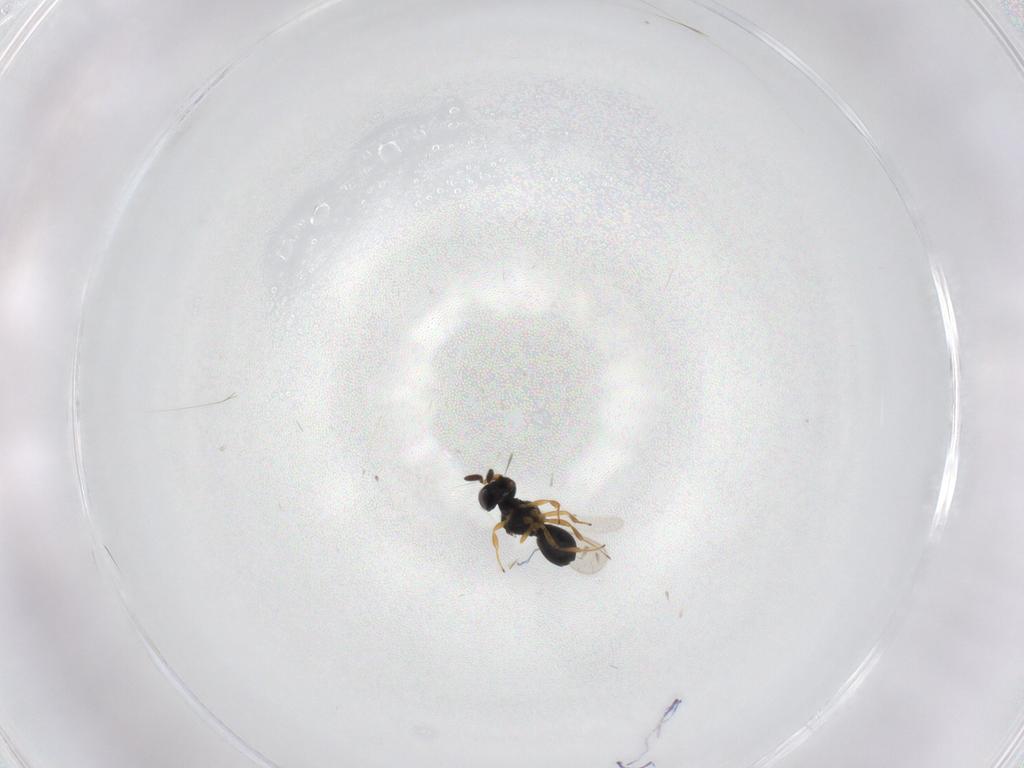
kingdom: Animalia
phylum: Arthropoda
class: Insecta
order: Hymenoptera
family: Scelionidae
